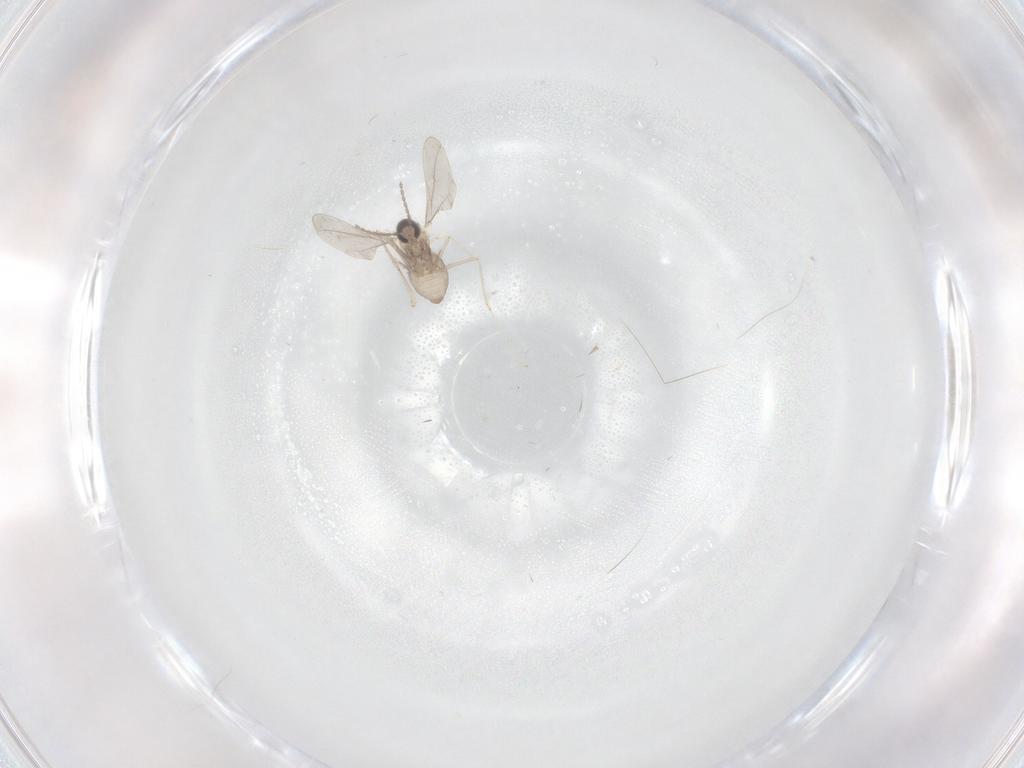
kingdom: Animalia
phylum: Arthropoda
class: Insecta
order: Diptera
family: Cecidomyiidae
